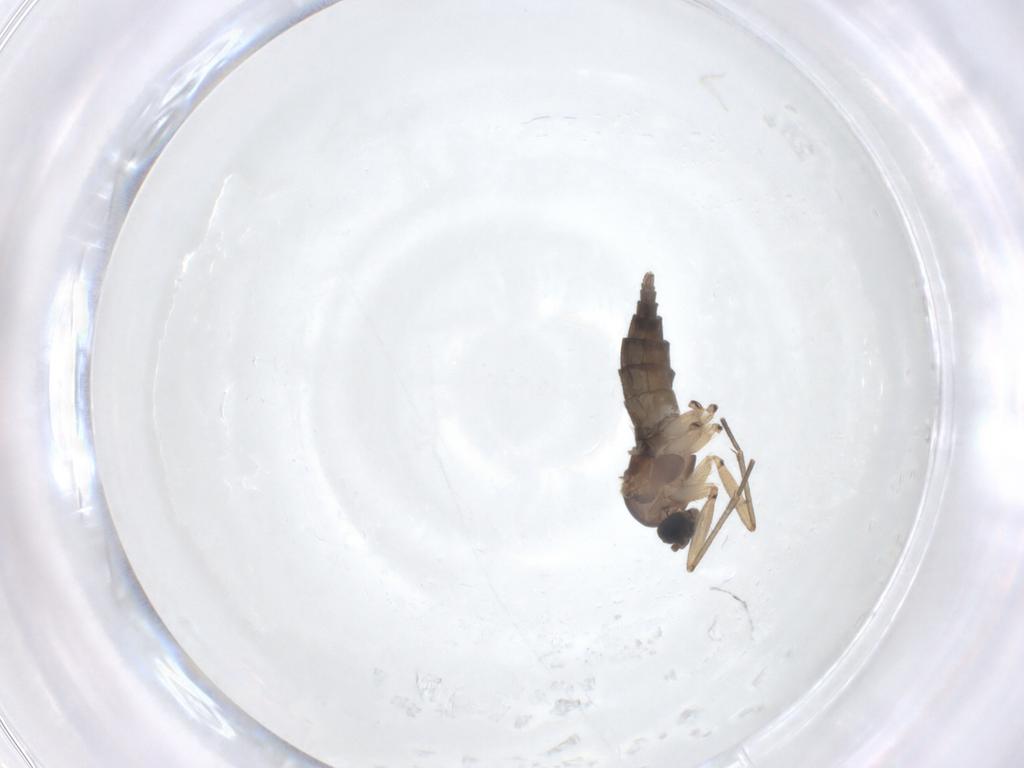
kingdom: Animalia
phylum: Arthropoda
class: Insecta
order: Diptera
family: Sciaridae
